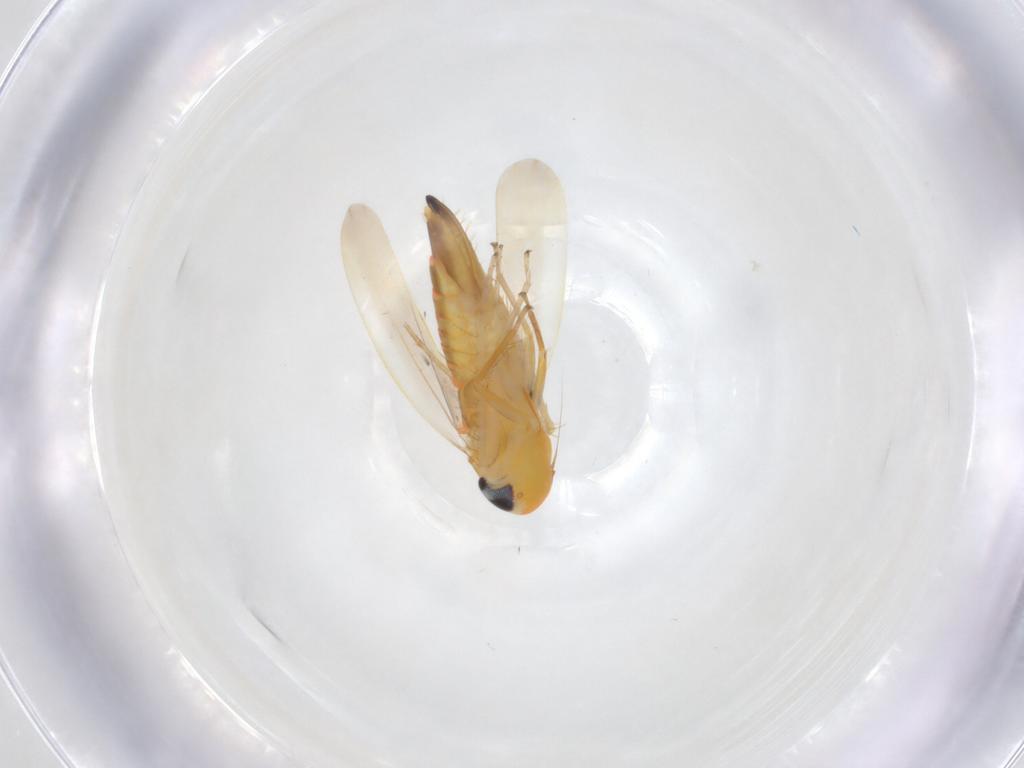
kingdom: Animalia
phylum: Arthropoda
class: Insecta
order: Hemiptera
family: Cicadellidae
